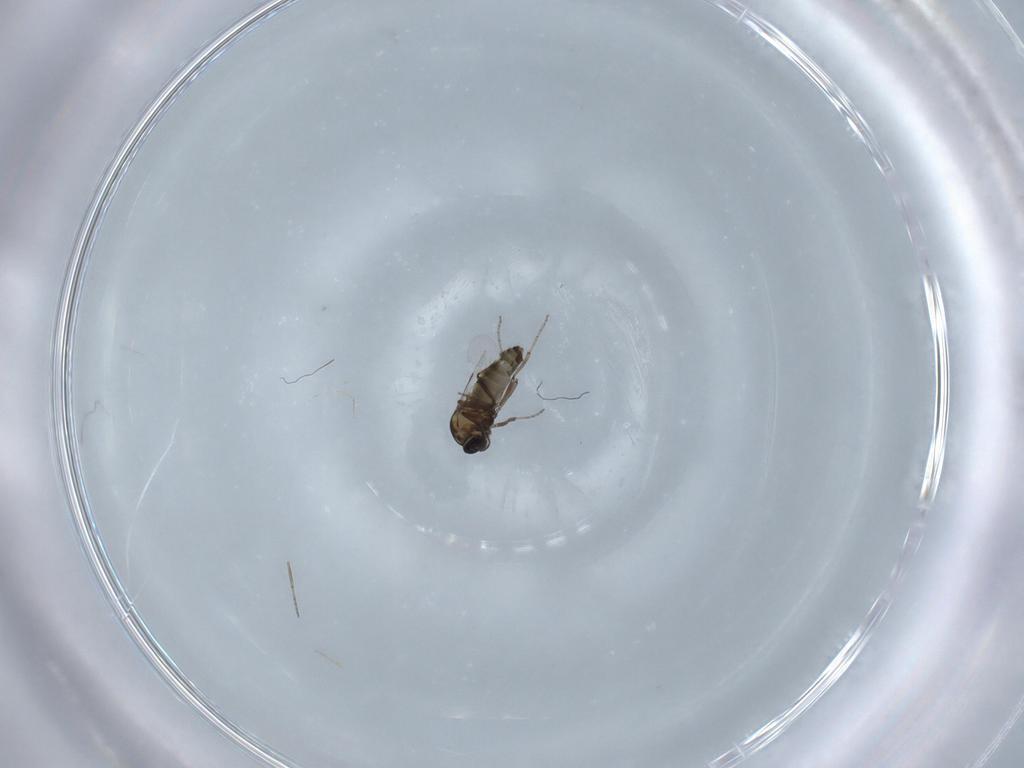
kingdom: Animalia
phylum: Arthropoda
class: Insecta
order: Diptera
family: Ceratopogonidae
